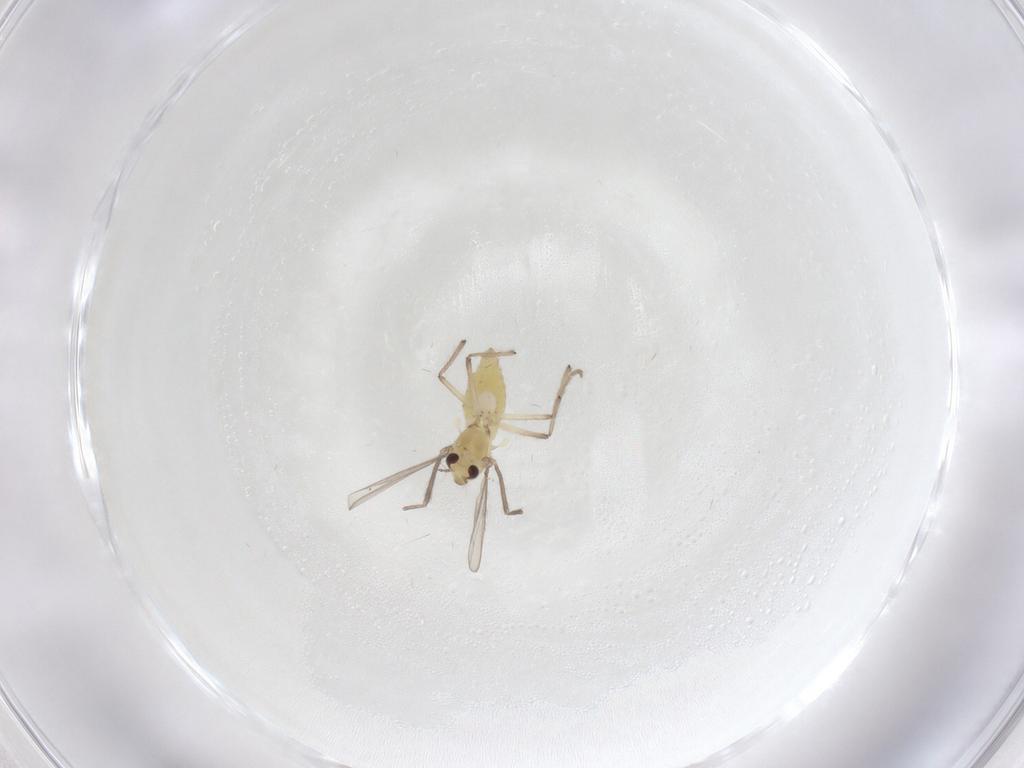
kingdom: Animalia
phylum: Arthropoda
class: Insecta
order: Diptera
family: Chironomidae
